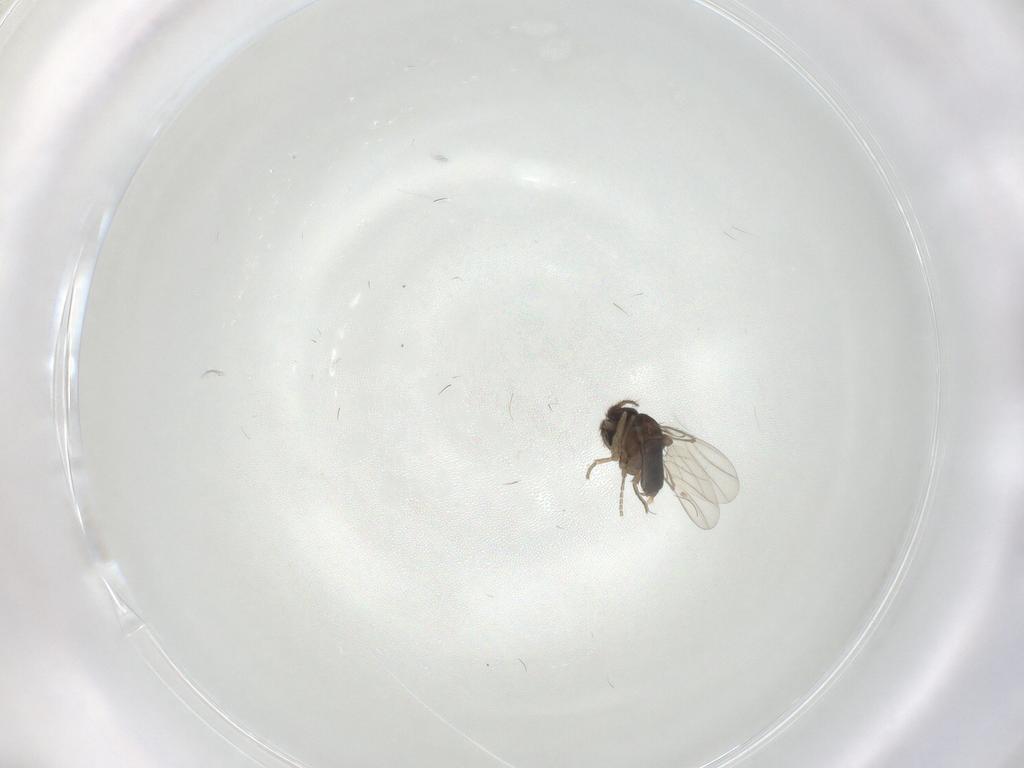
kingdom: Animalia
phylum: Arthropoda
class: Insecta
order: Diptera
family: Phoridae
